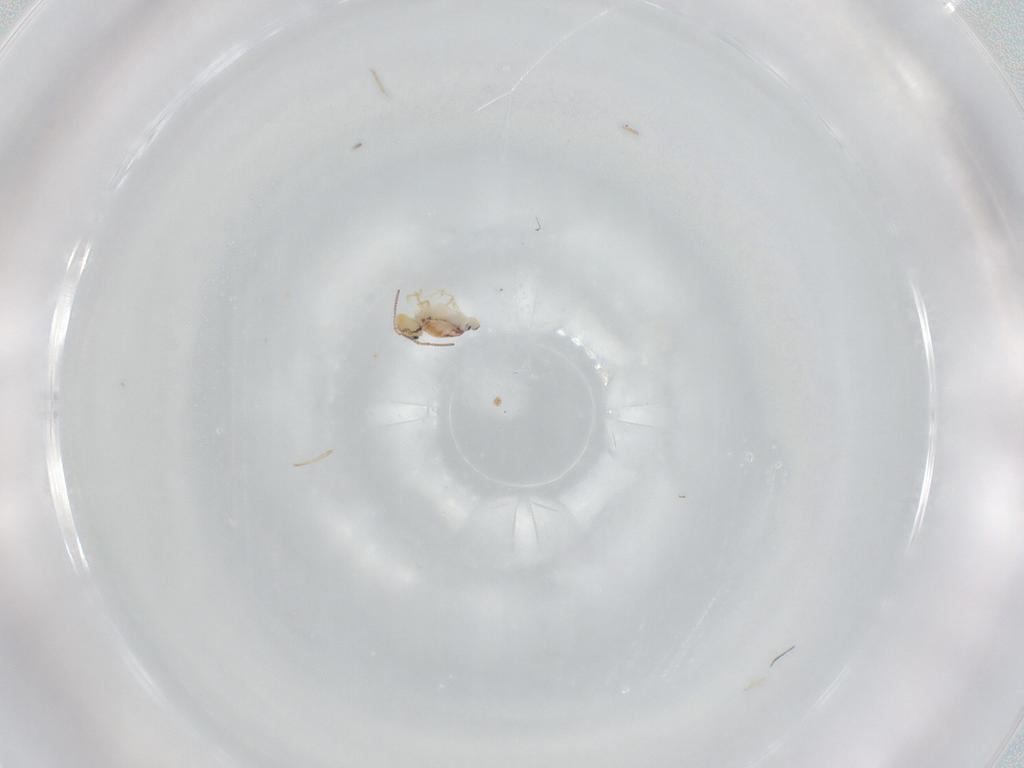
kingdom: Animalia
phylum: Arthropoda
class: Collembola
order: Symphypleona
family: Bourletiellidae
